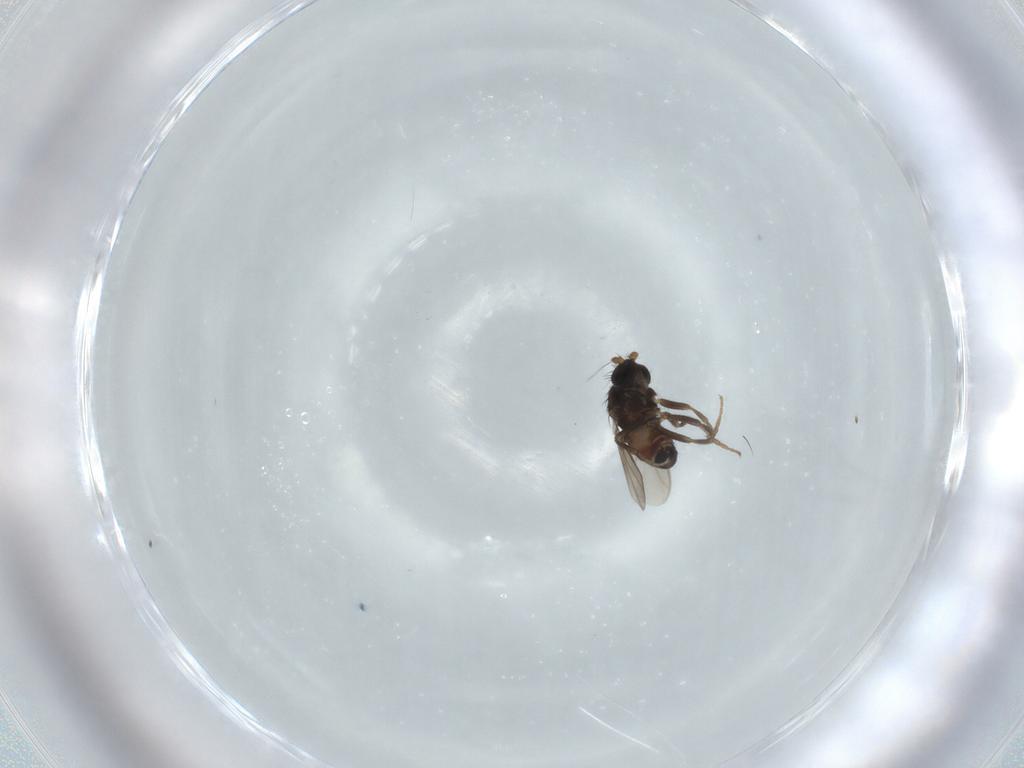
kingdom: Animalia
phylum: Arthropoda
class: Insecta
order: Diptera
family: Sphaeroceridae
